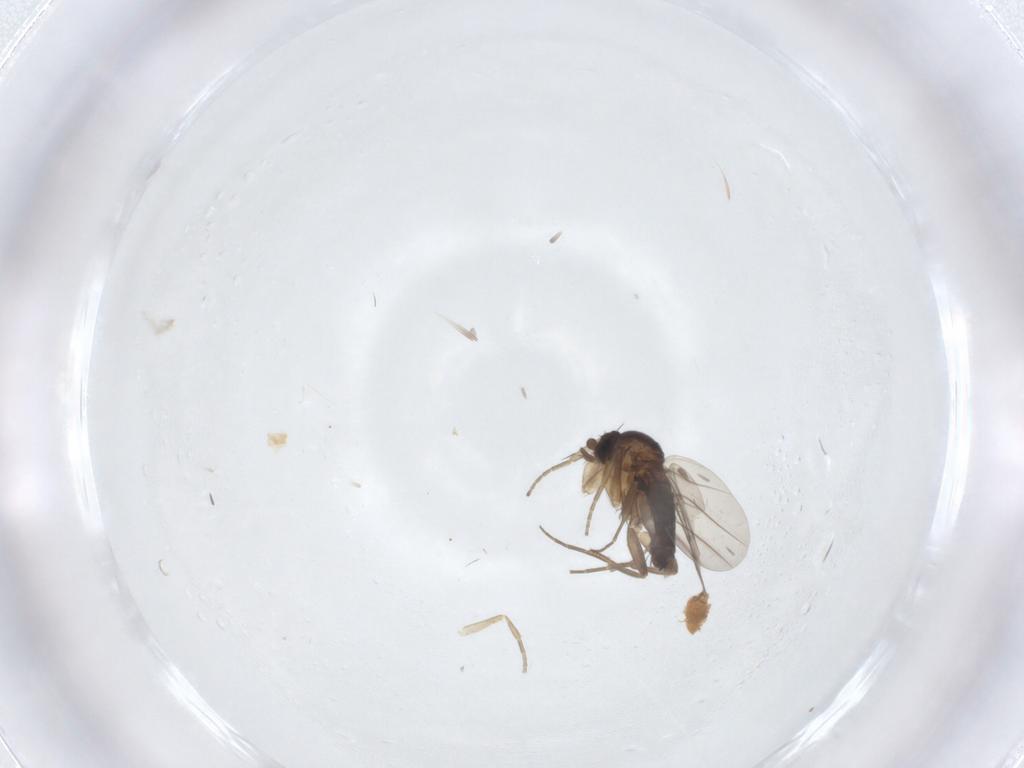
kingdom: Animalia
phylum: Arthropoda
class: Insecta
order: Diptera
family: Phoridae
